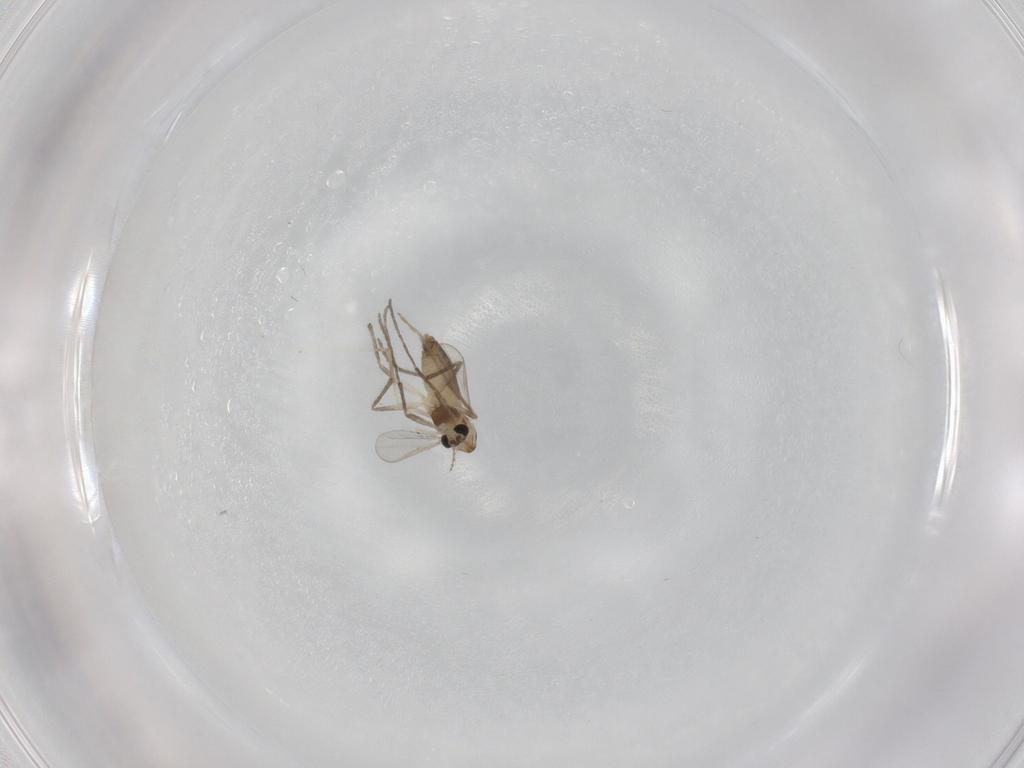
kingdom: Animalia
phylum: Arthropoda
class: Insecta
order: Diptera
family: Chironomidae
